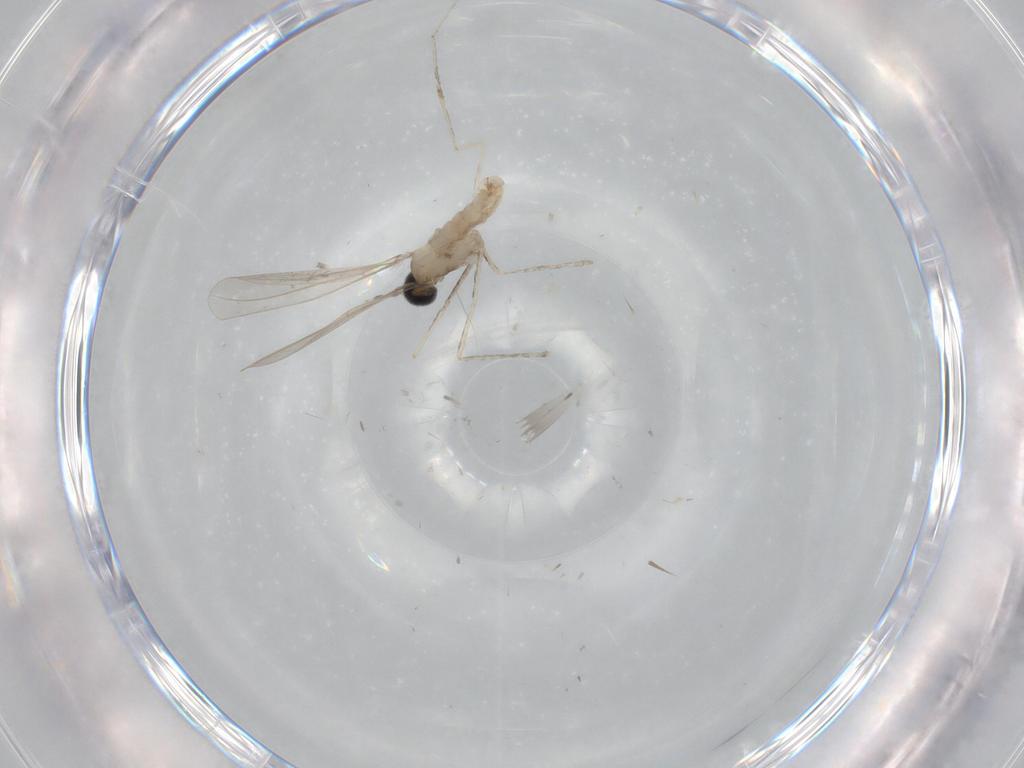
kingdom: Animalia
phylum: Arthropoda
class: Insecta
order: Diptera
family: Cecidomyiidae
